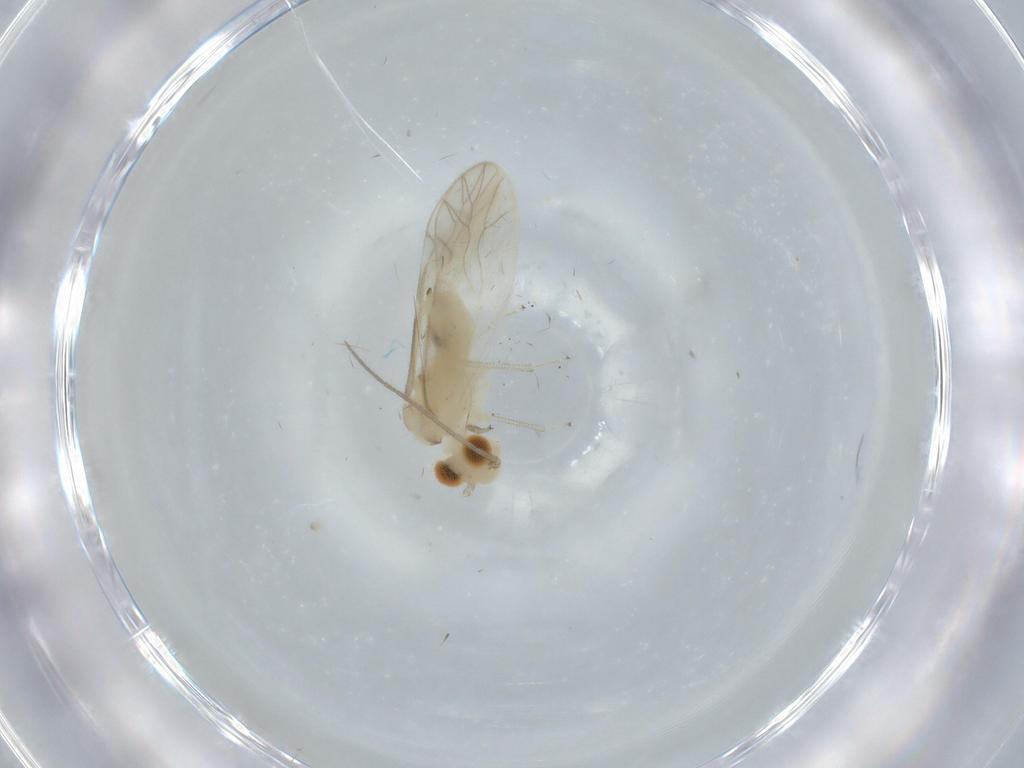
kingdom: Animalia
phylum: Arthropoda
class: Insecta
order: Psocodea
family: Caeciliusidae
